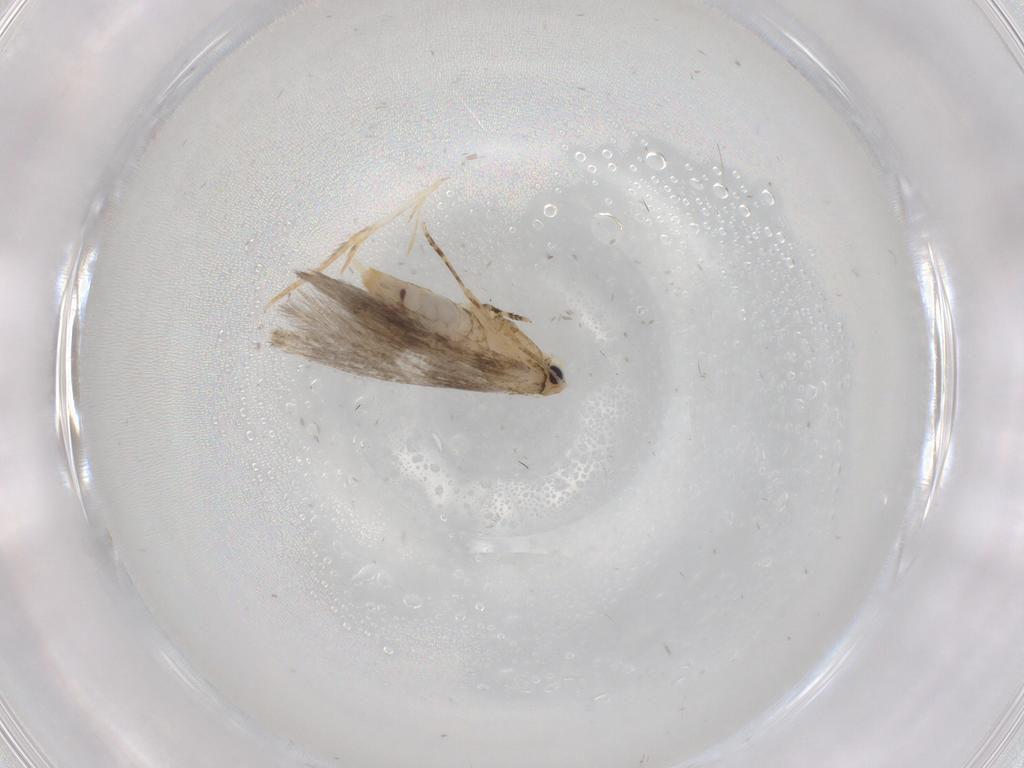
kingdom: Animalia
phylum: Arthropoda
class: Insecta
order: Lepidoptera
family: Tineidae
